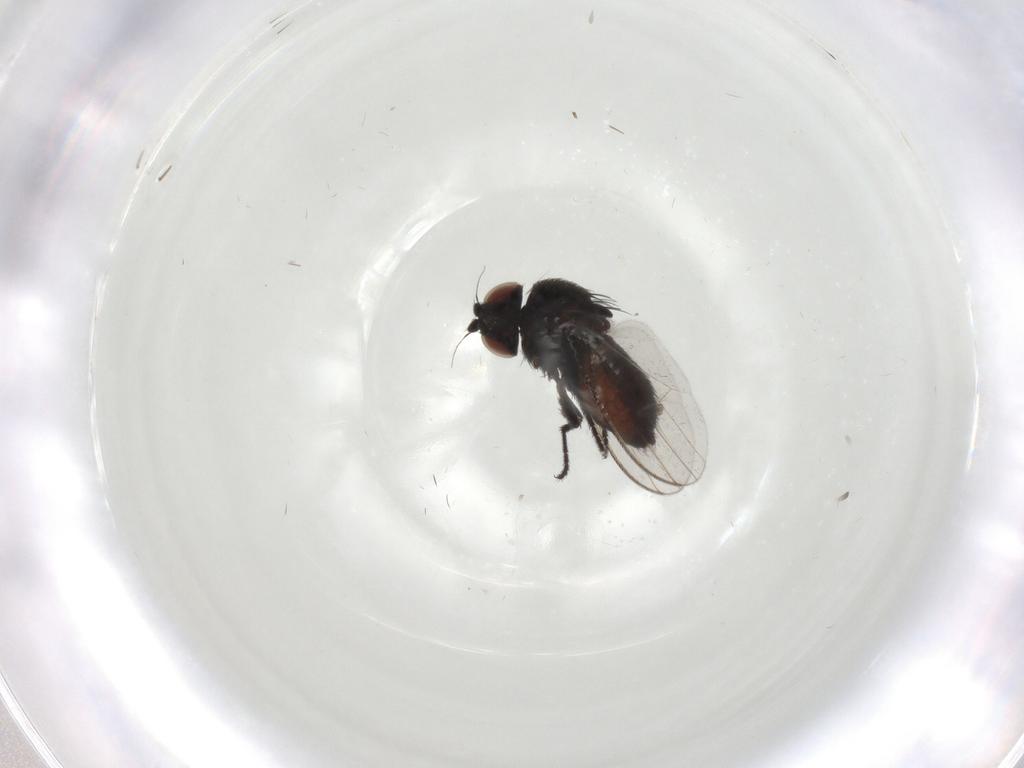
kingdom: Animalia
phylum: Arthropoda
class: Insecta
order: Diptera
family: Milichiidae
